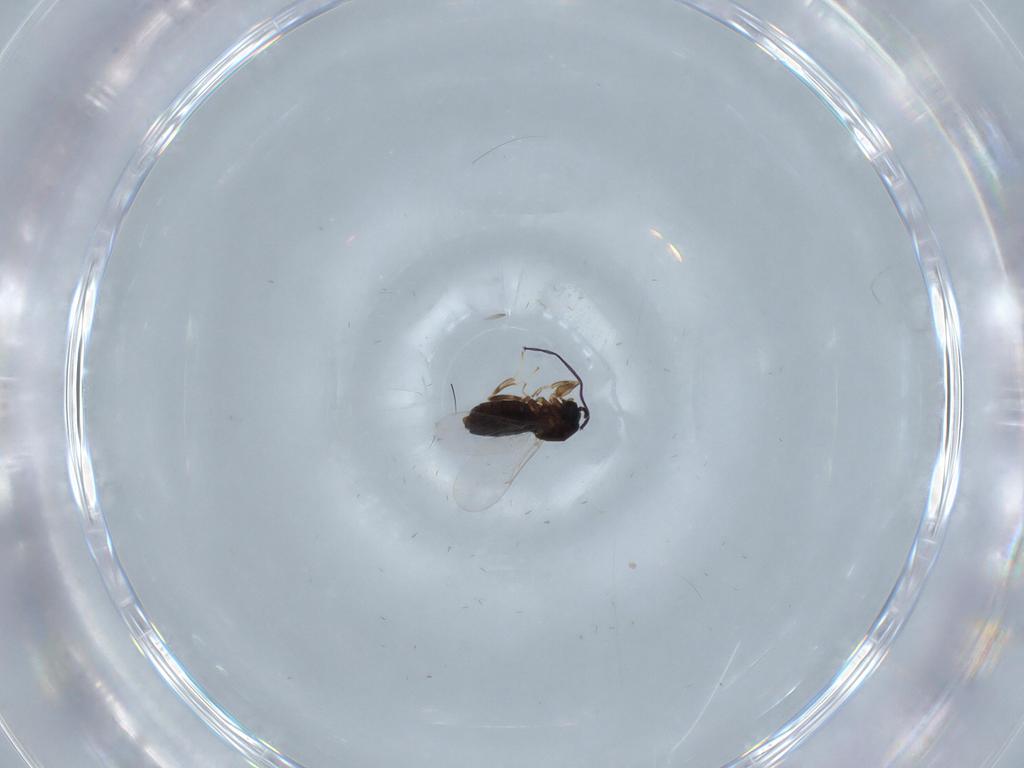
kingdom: Animalia
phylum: Arthropoda
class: Insecta
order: Diptera
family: Scatopsidae
